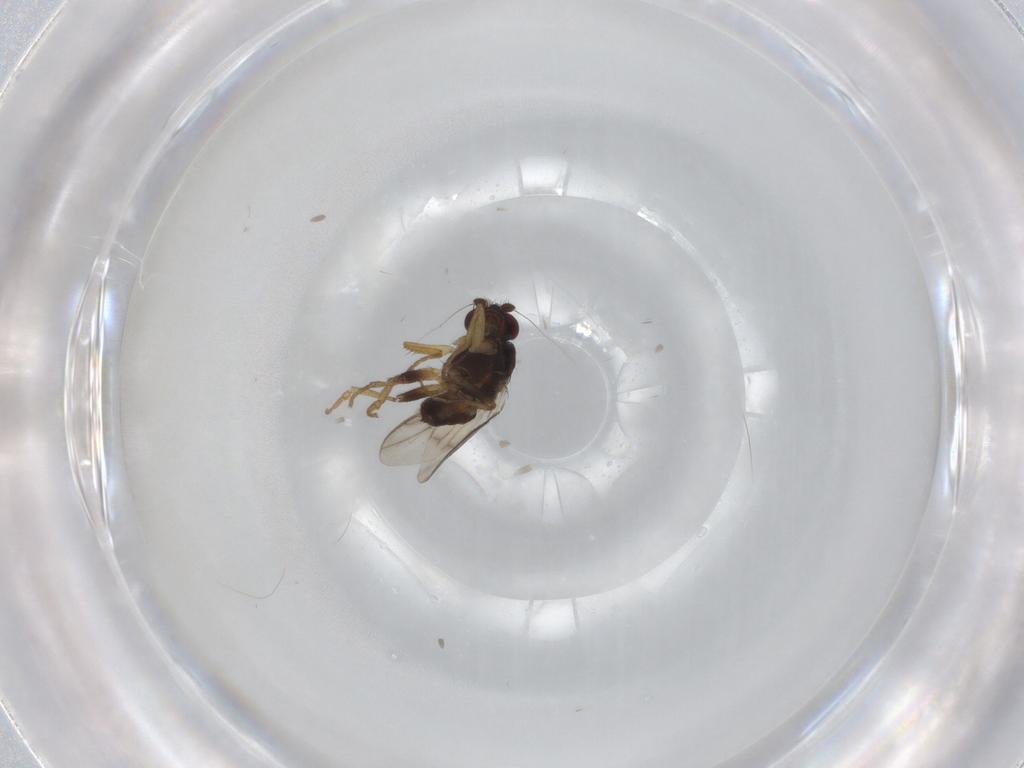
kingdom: Animalia
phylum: Arthropoda
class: Insecta
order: Diptera
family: Sphaeroceridae
